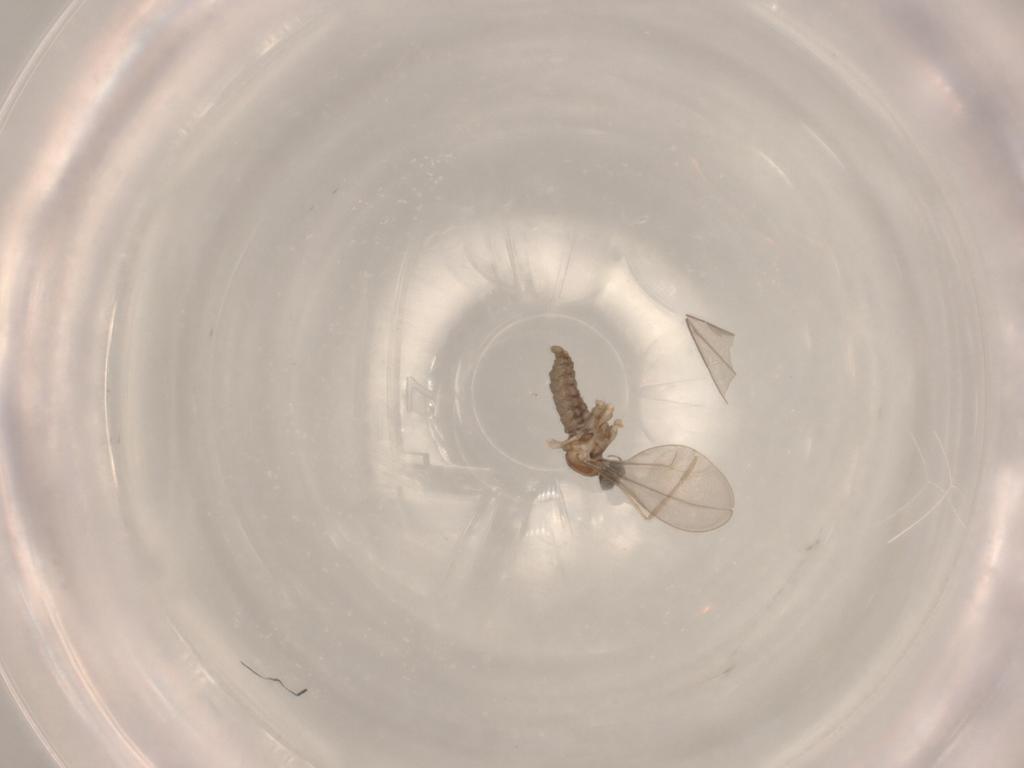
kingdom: Animalia
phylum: Arthropoda
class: Insecta
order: Diptera
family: Cecidomyiidae
